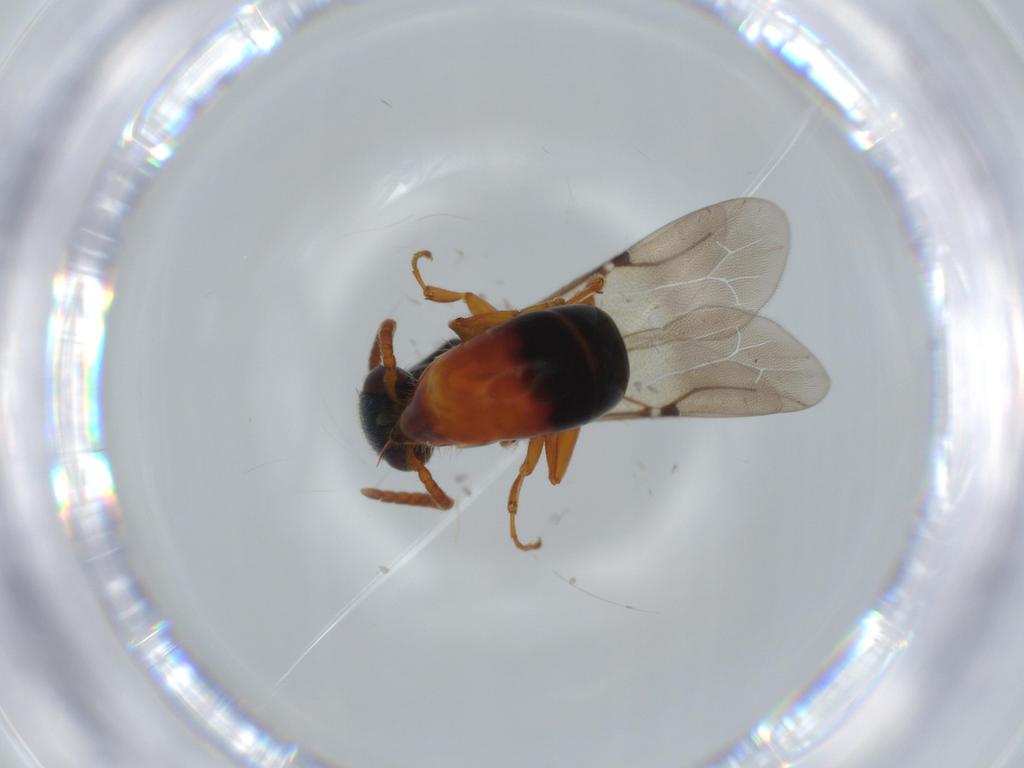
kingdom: Animalia
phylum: Arthropoda
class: Insecta
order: Hymenoptera
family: Bethylidae
